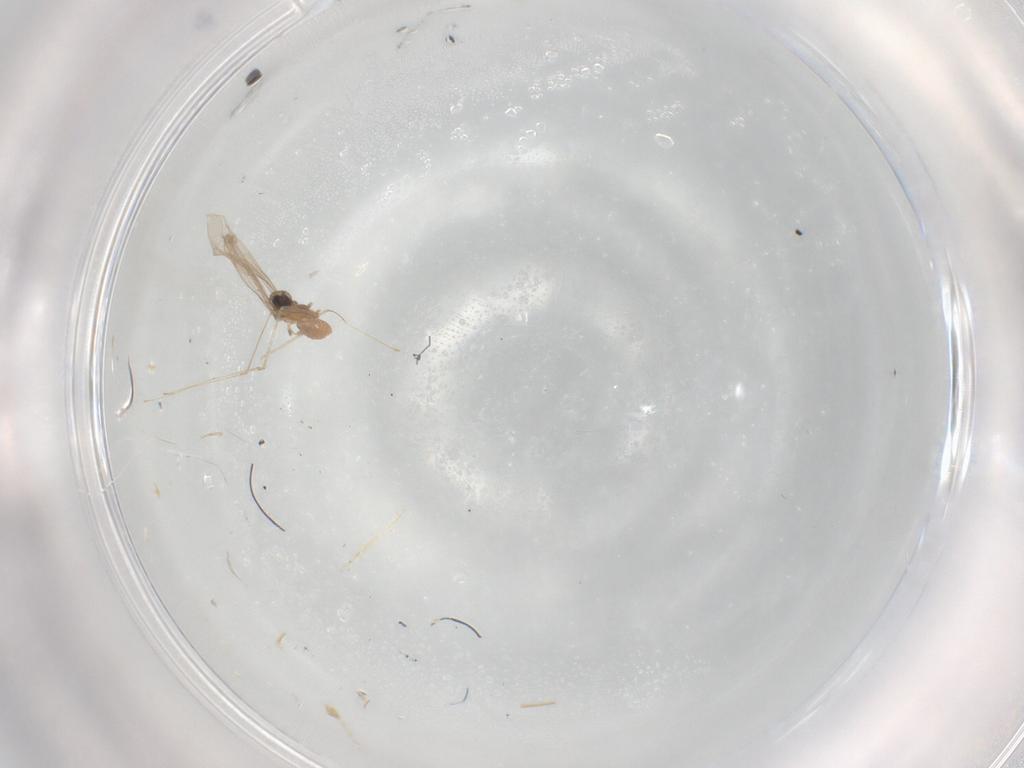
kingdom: Animalia
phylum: Arthropoda
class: Insecta
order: Diptera
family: Cecidomyiidae
